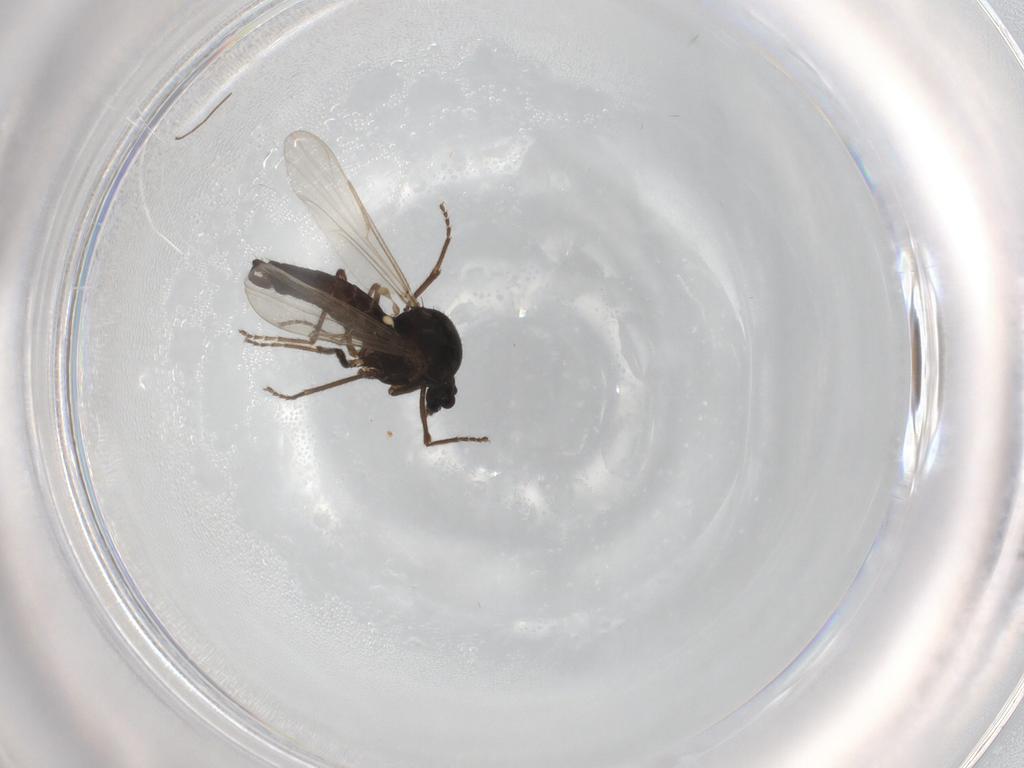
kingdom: Animalia
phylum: Arthropoda
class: Insecta
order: Diptera
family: Ceratopogonidae
